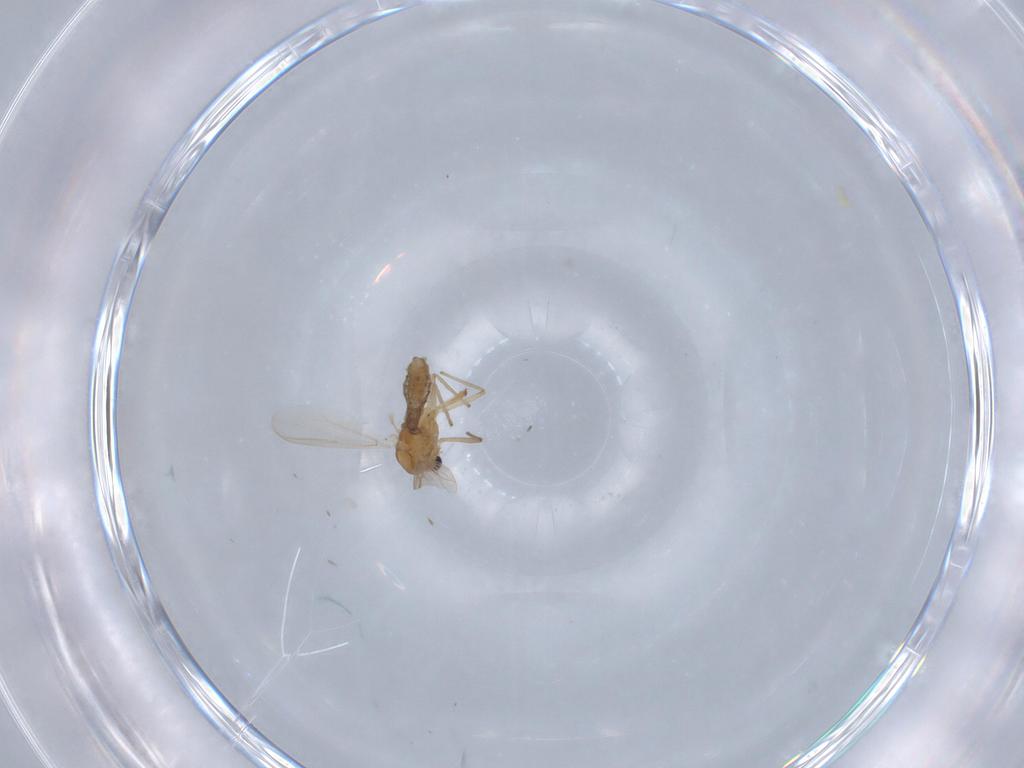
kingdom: Animalia
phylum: Arthropoda
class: Insecta
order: Diptera
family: Chironomidae
